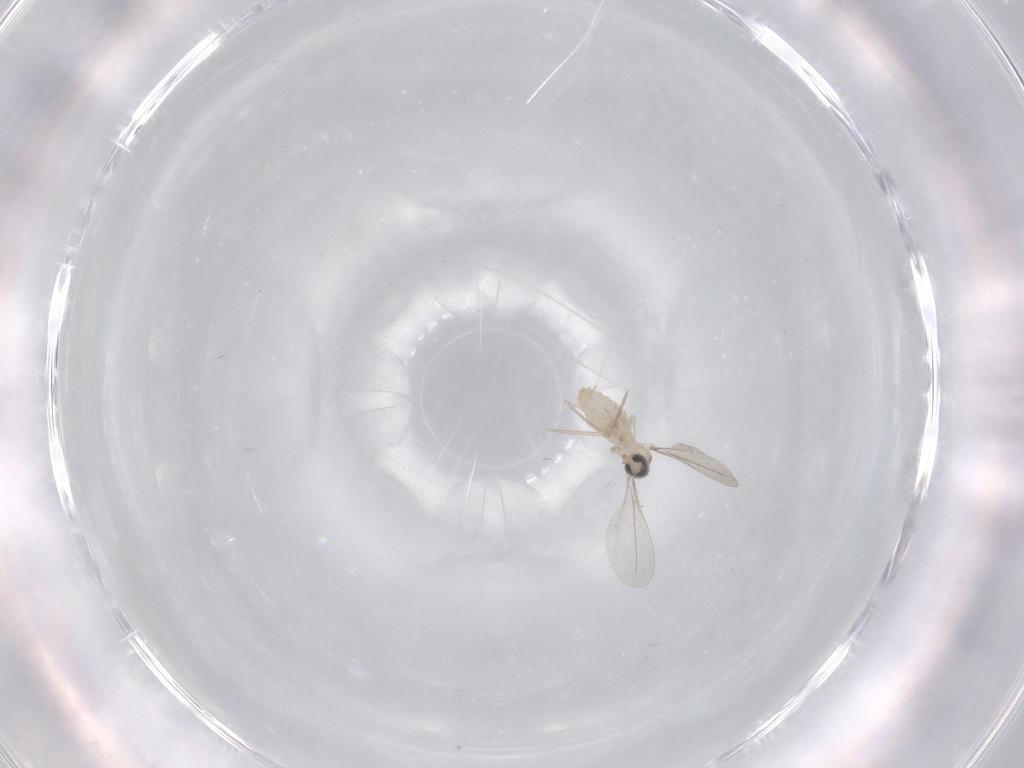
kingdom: Animalia
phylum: Arthropoda
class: Insecta
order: Diptera
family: Cecidomyiidae
